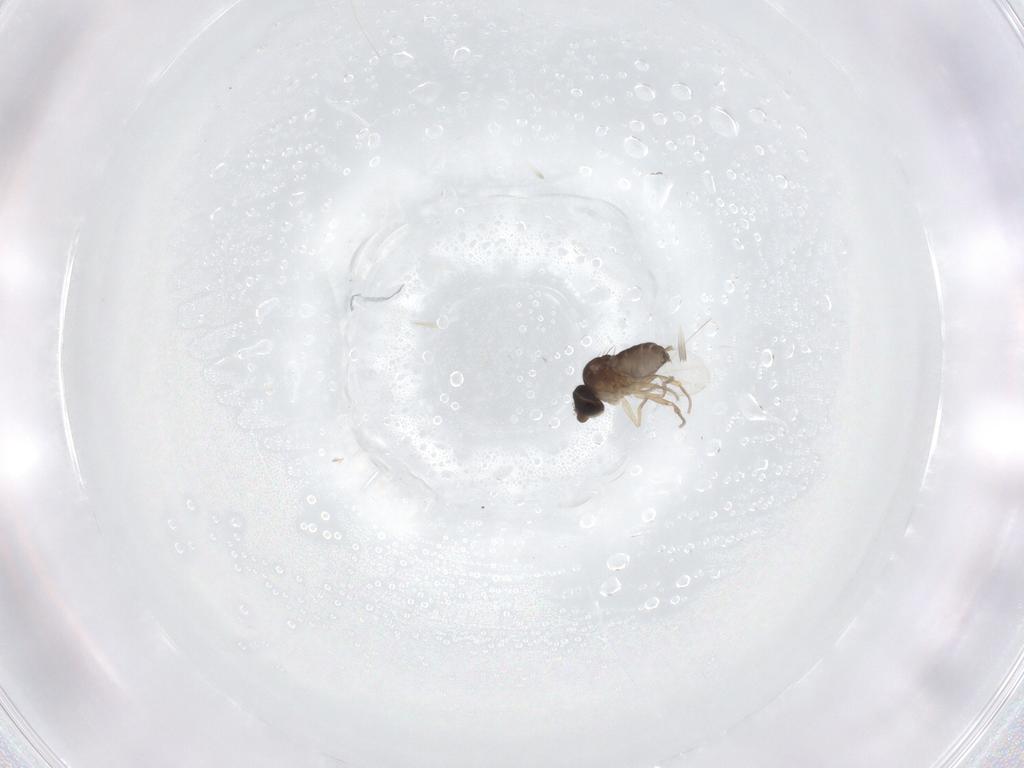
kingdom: Animalia
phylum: Arthropoda
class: Insecta
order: Diptera
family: Phoridae
